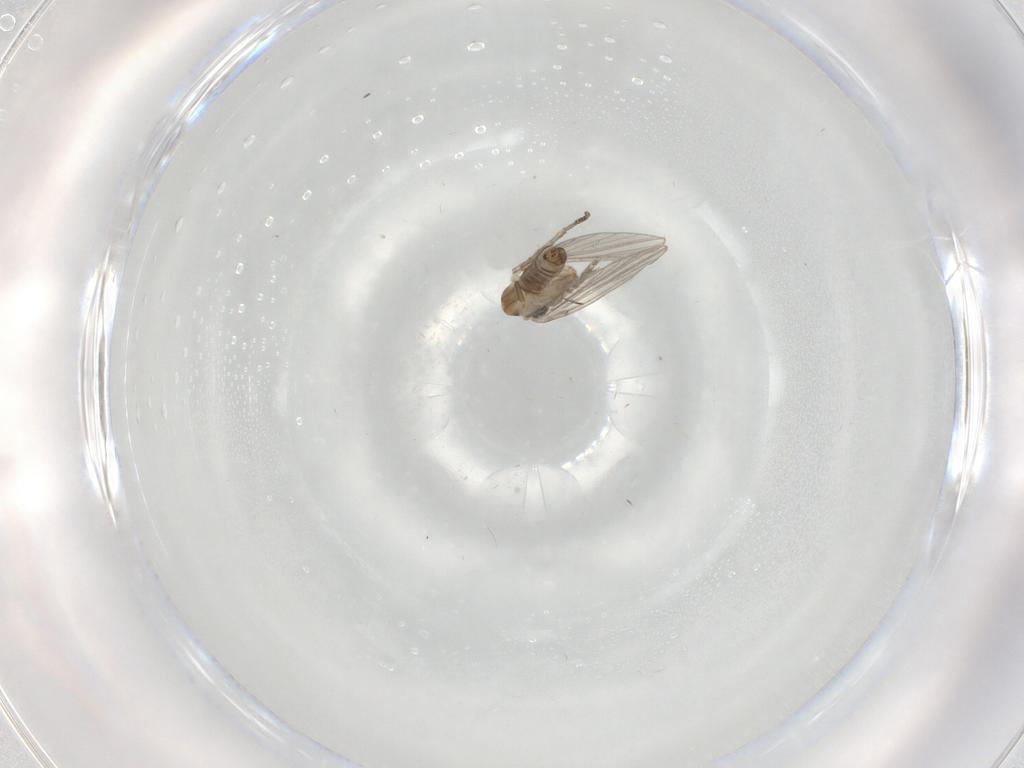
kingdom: Animalia
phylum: Arthropoda
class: Insecta
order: Diptera
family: Psychodidae
